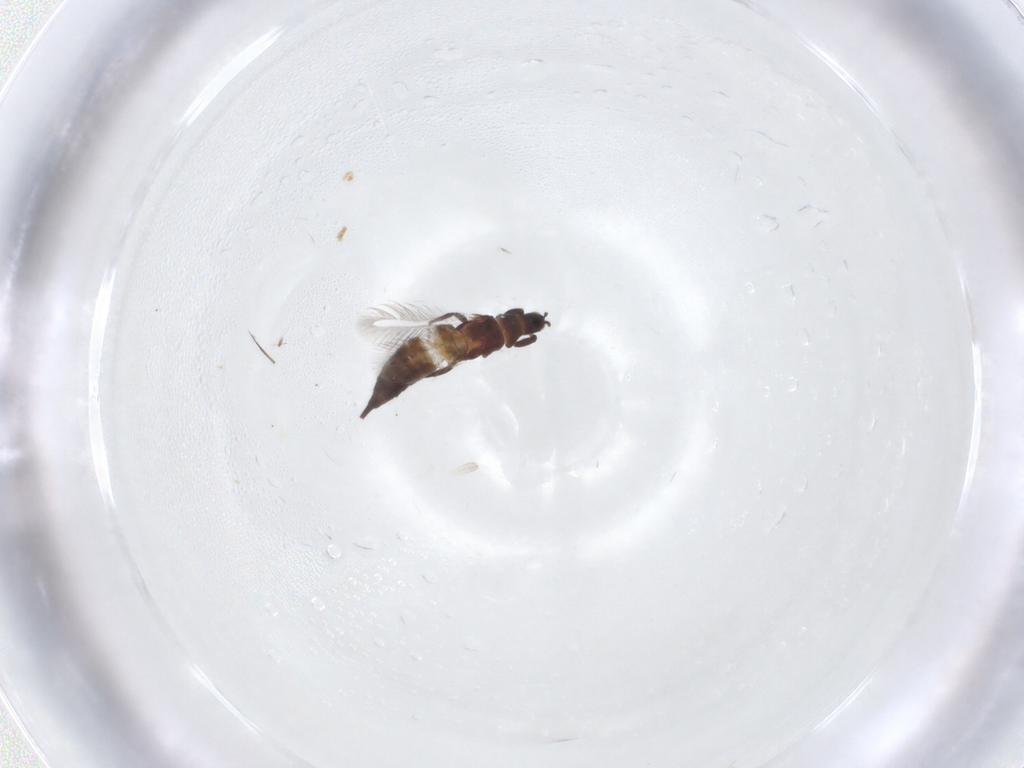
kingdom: Animalia
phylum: Arthropoda
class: Insecta
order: Thysanoptera
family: Phlaeothripidae
